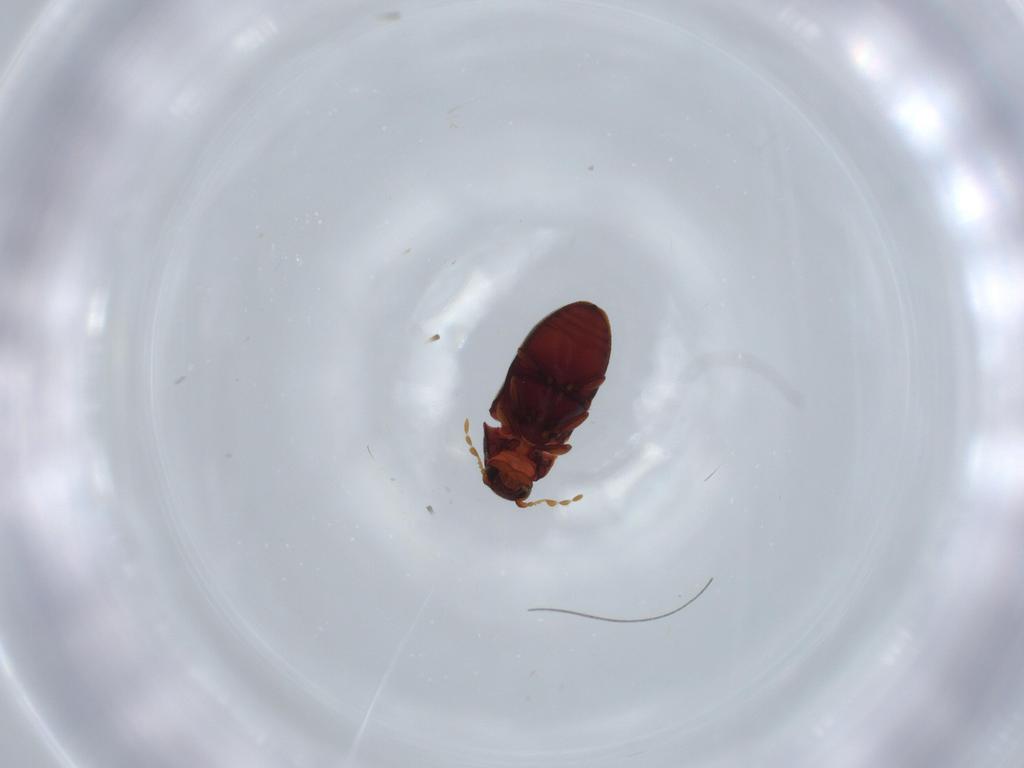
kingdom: Animalia
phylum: Arthropoda
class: Insecta
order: Coleoptera
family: Ptinidae
